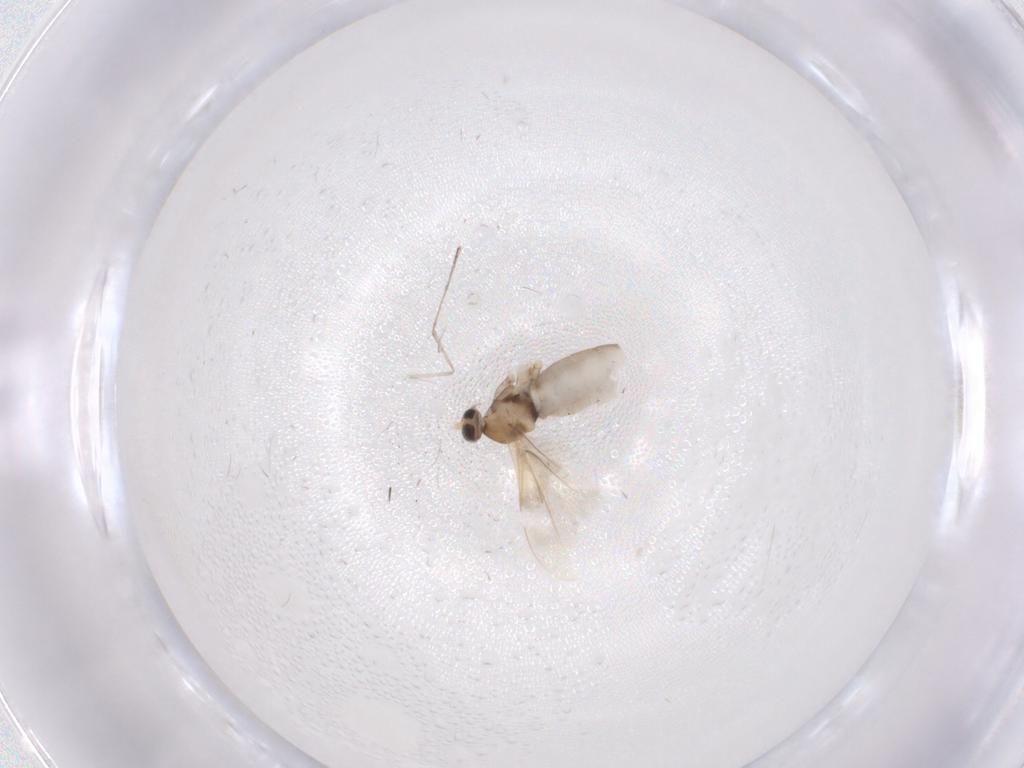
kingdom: Animalia
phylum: Arthropoda
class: Insecta
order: Diptera
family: Cecidomyiidae
